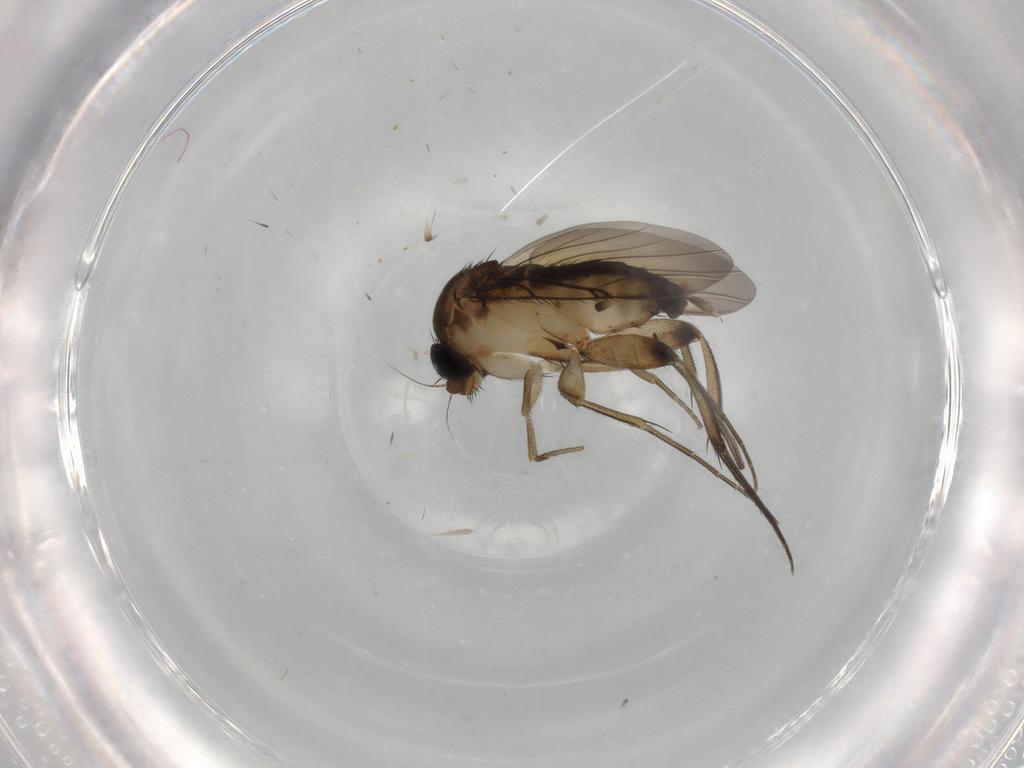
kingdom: Animalia
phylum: Arthropoda
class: Insecta
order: Diptera
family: Phoridae
